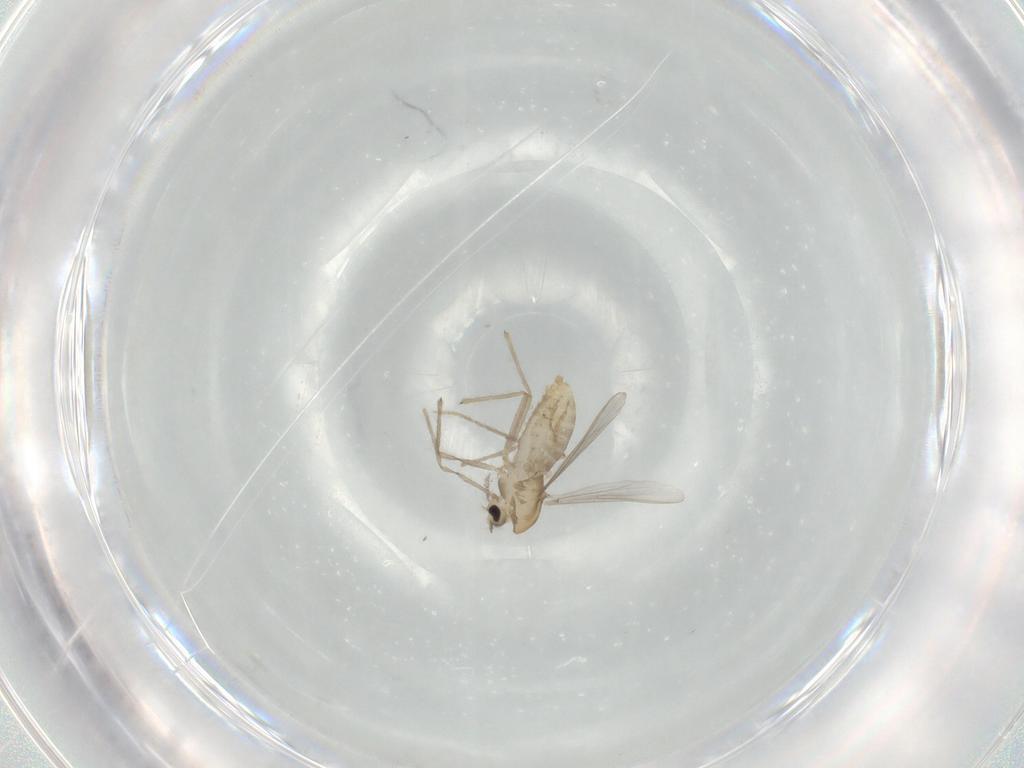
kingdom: Animalia
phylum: Arthropoda
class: Insecta
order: Diptera
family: Chironomidae
